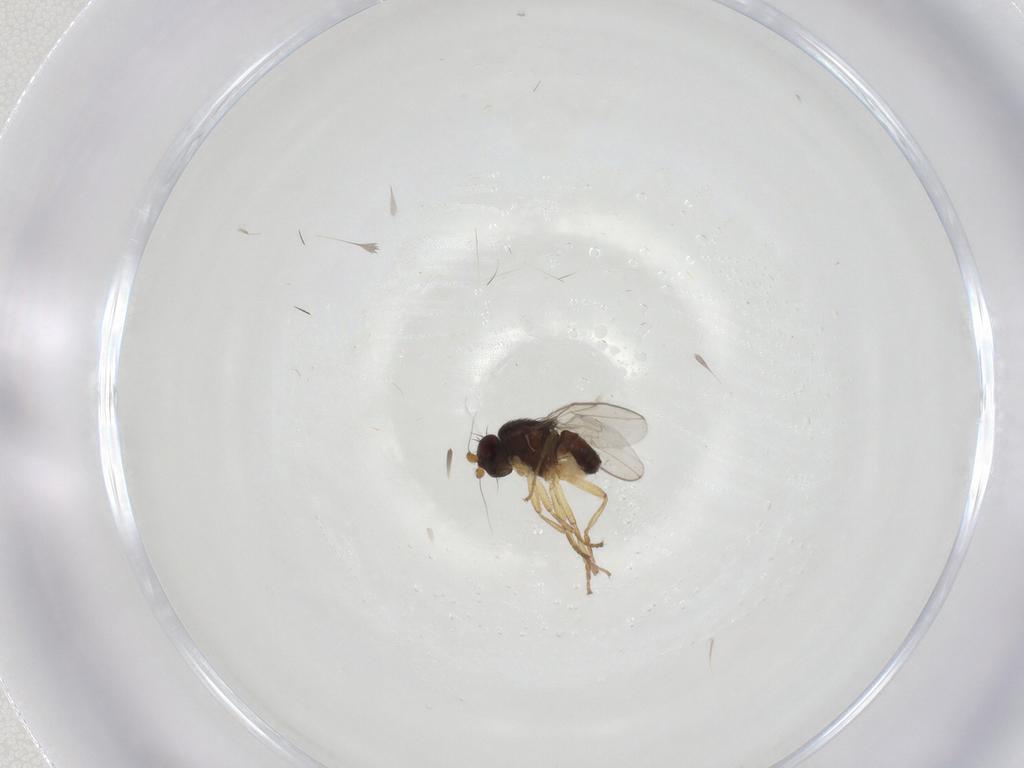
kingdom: Animalia
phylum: Arthropoda
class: Insecta
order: Diptera
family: Sphaeroceridae
